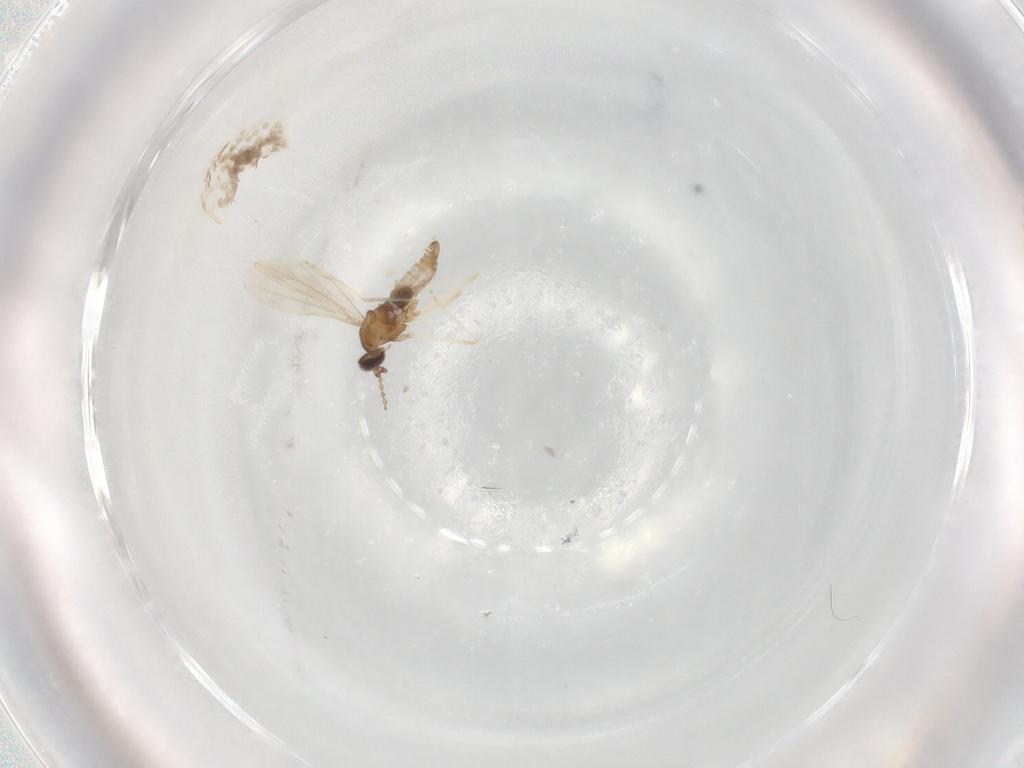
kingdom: Animalia
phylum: Arthropoda
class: Insecta
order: Diptera
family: Cecidomyiidae
